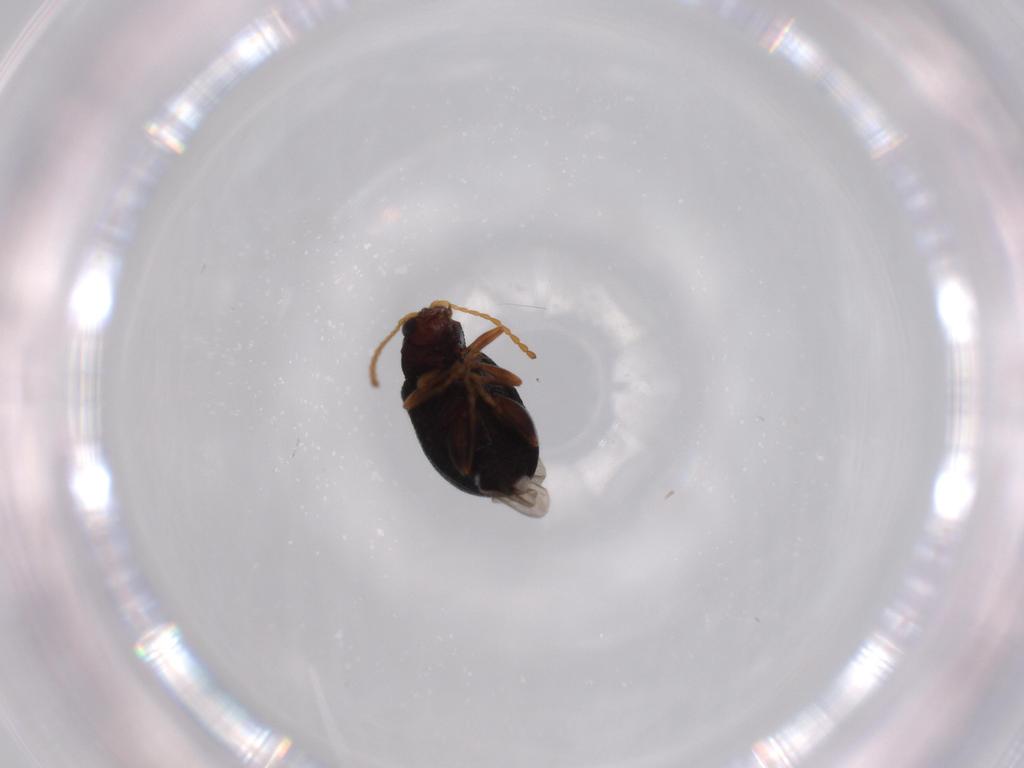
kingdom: Animalia
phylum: Arthropoda
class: Insecta
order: Coleoptera
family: Chrysomelidae
